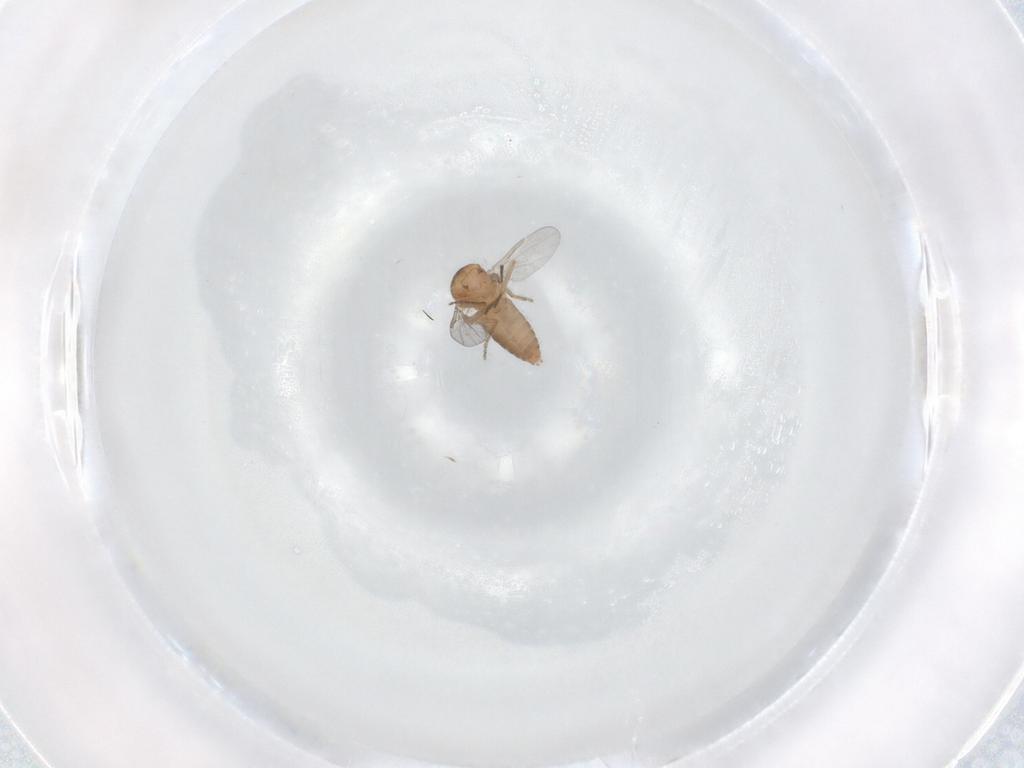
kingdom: Animalia
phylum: Arthropoda
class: Insecta
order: Diptera
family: Ceratopogonidae
